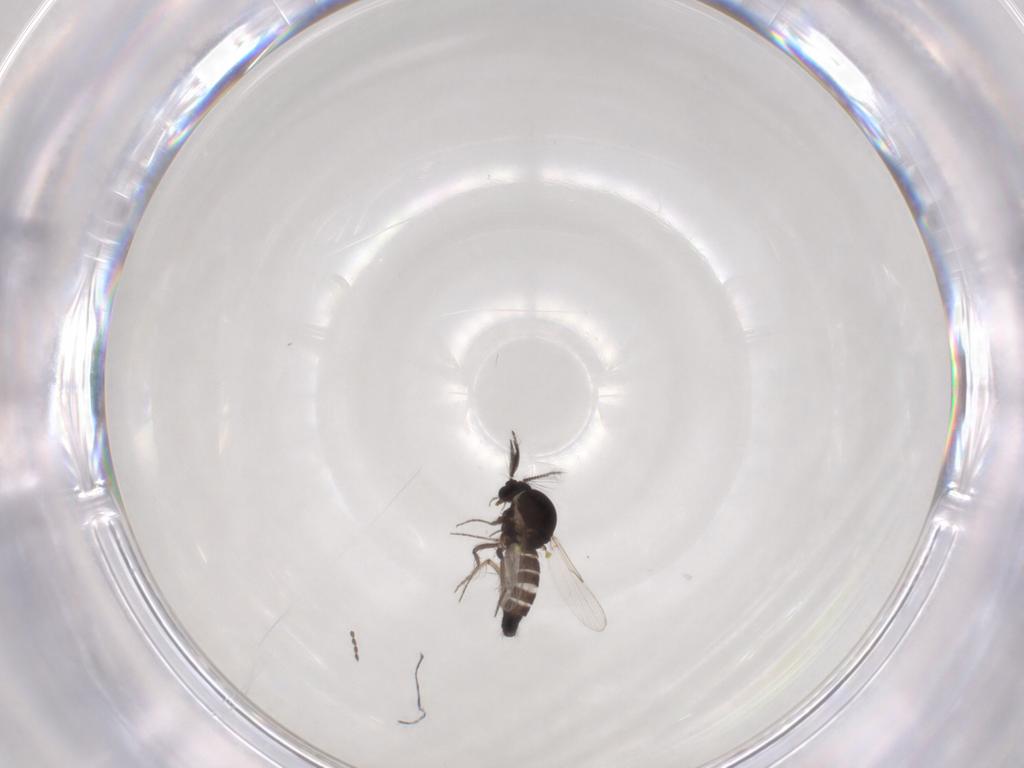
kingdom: Animalia
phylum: Arthropoda
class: Insecta
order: Diptera
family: Ceratopogonidae
